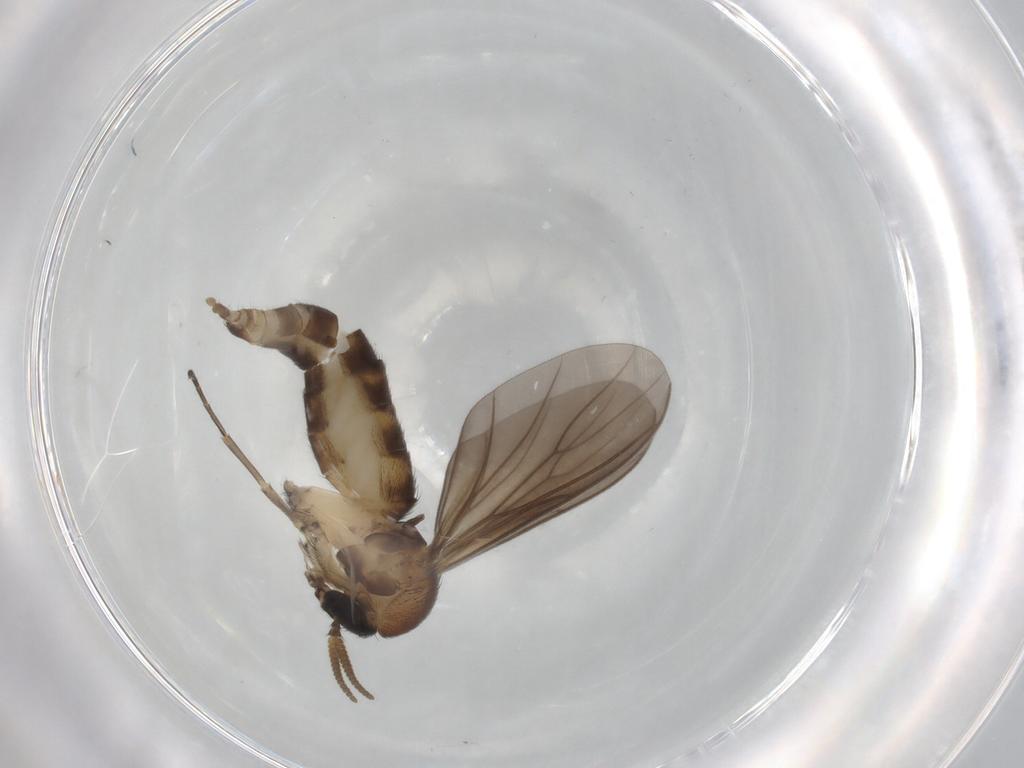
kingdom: Animalia
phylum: Arthropoda
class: Insecta
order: Diptera
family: Mycetophilidae
